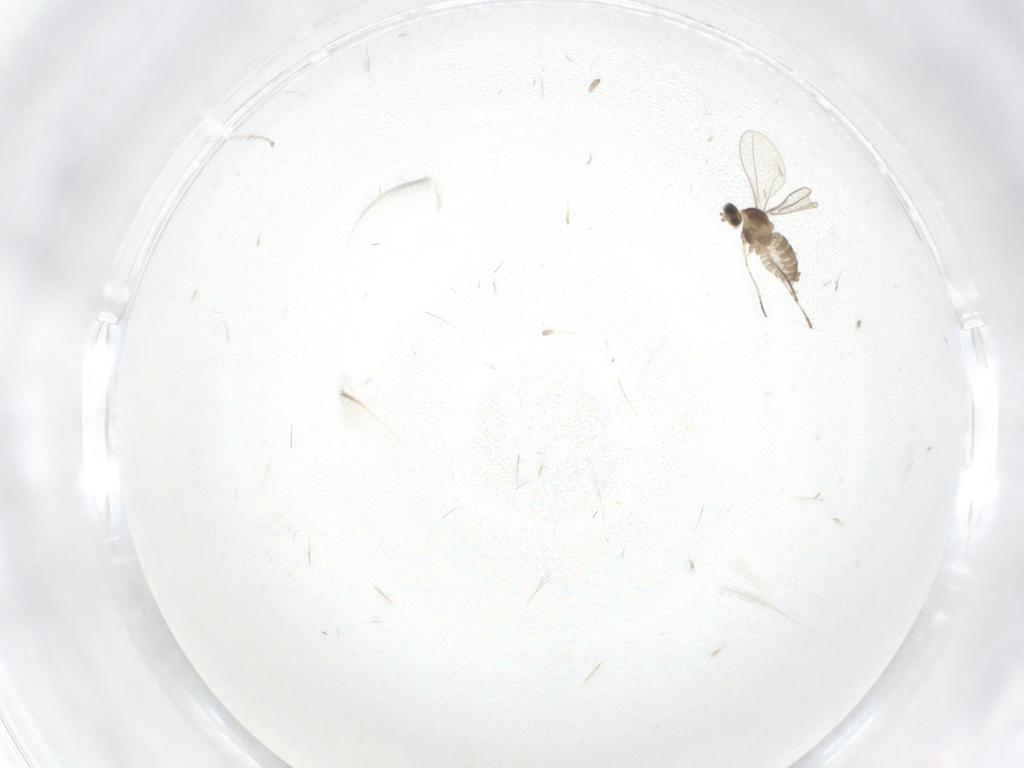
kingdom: Animalia
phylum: Arthropoda
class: Insecta
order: Diptera
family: Cecidomyiidae
